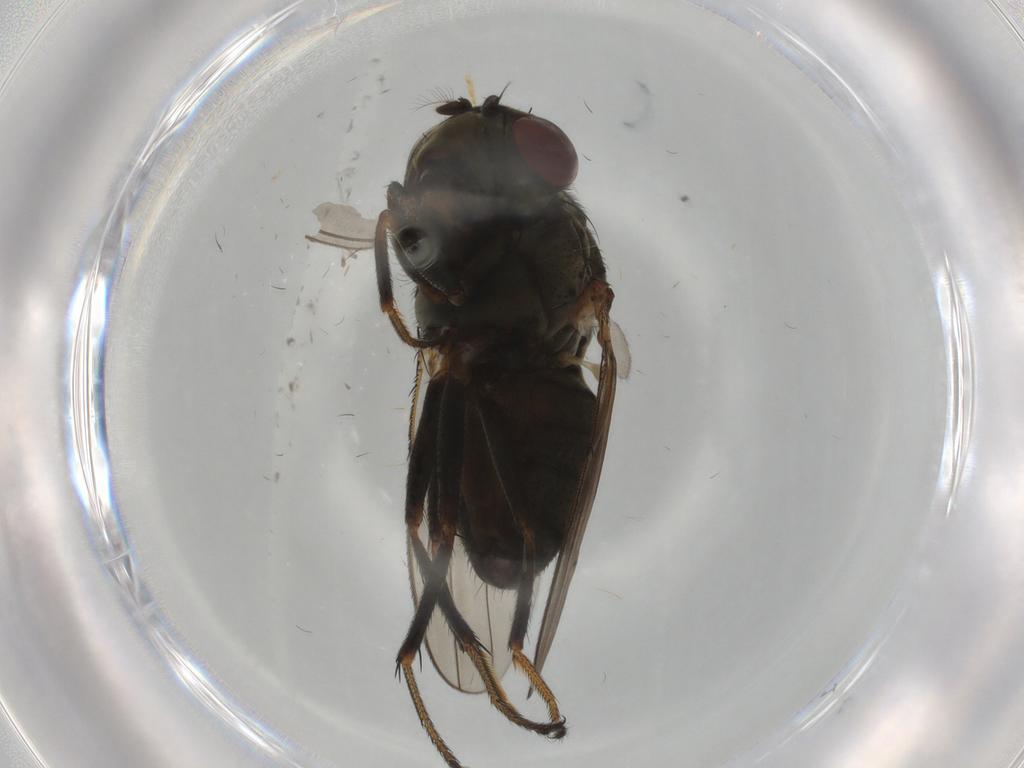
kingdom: Animalia
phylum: Arthropoda
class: Insecta
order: Diptera
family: Ephydridae
